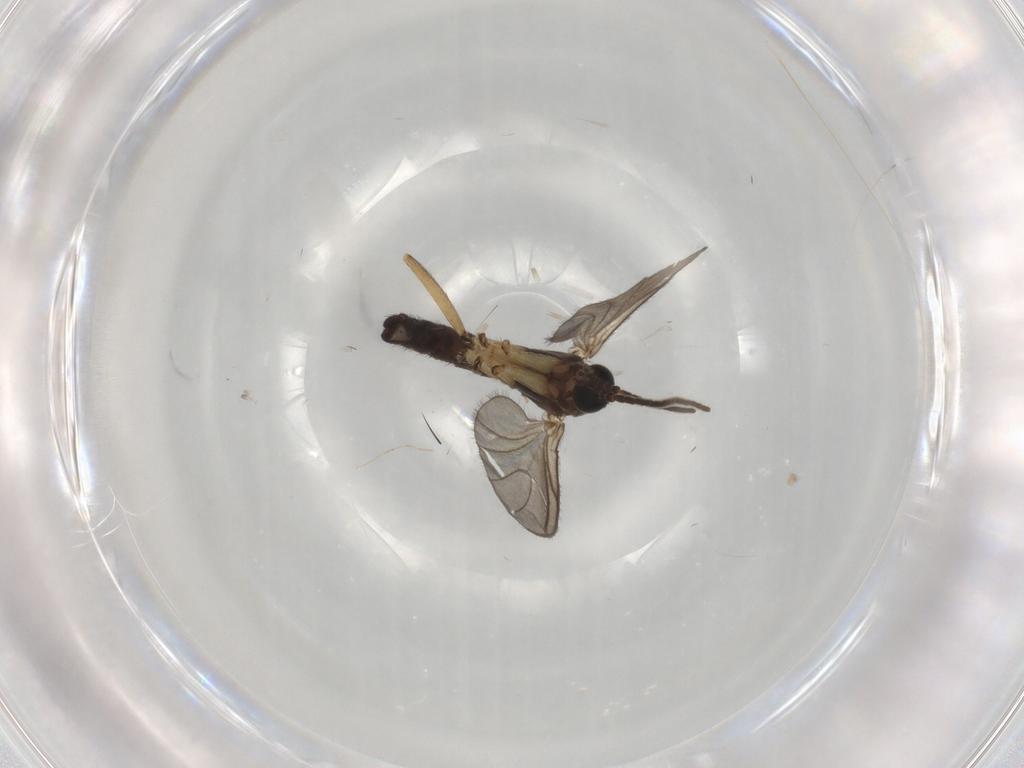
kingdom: Animalia
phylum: Arthropoda
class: Insecta
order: Diptera
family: Sciaridae
